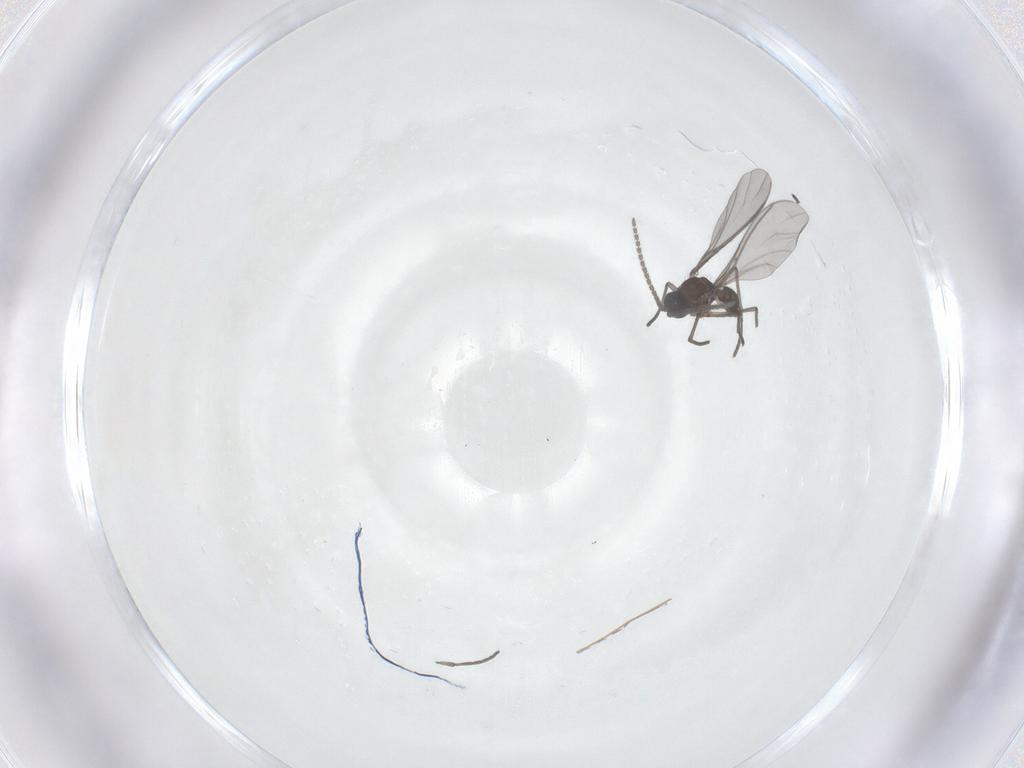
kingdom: Animalia
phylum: Arthropoda
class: Insecta
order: Diptera
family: Sciaridae
